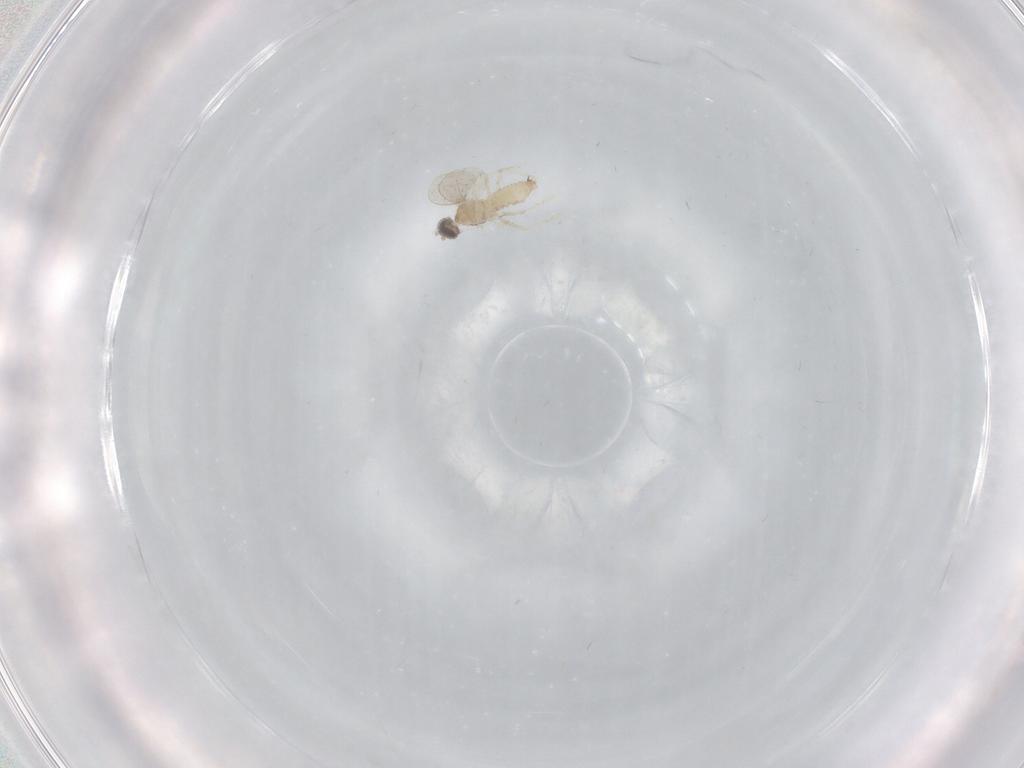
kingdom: Animalia
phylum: Arthropoda
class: Insecta
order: Diptera
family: Cecidomyiidae
